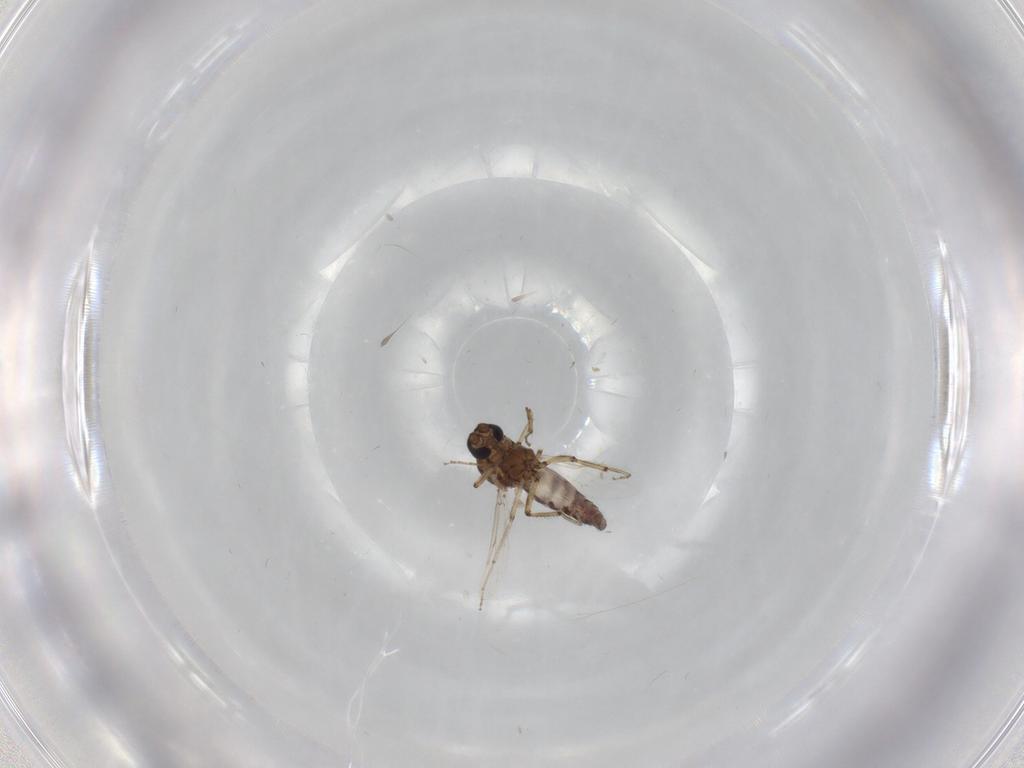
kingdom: Animalia
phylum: Arthropoda
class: Insecta
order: Diptera
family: Ceratopogonidae
